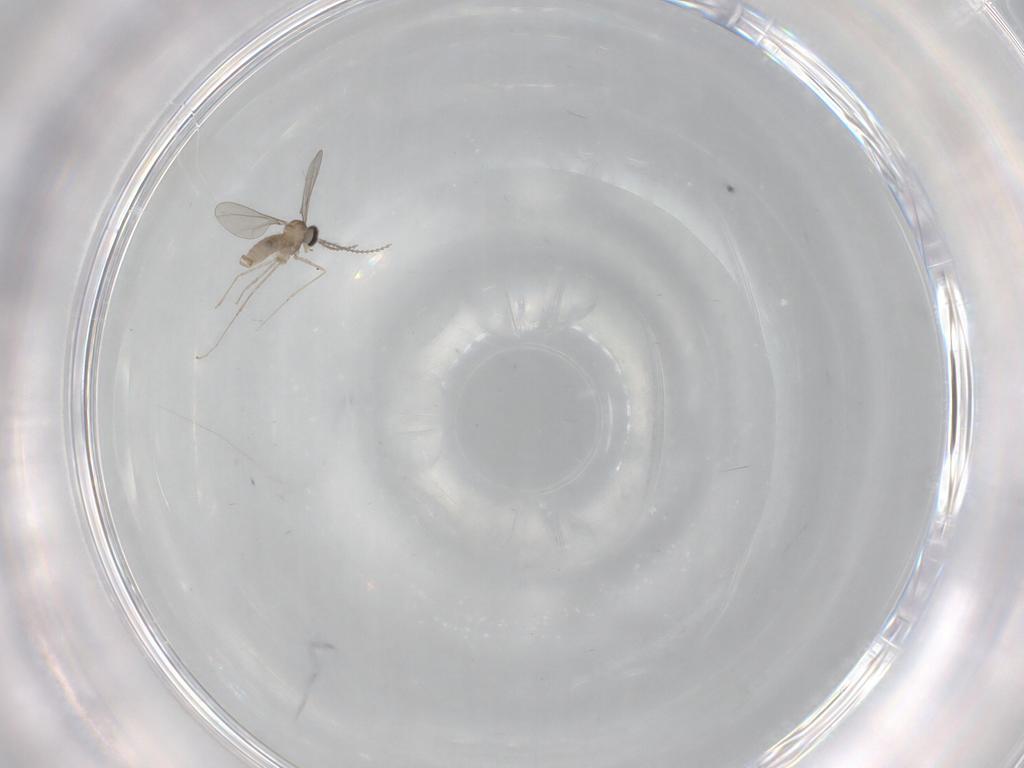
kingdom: Animalia
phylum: Arthropoda
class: Insecta
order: Diptera
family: Cecidomyiidae
